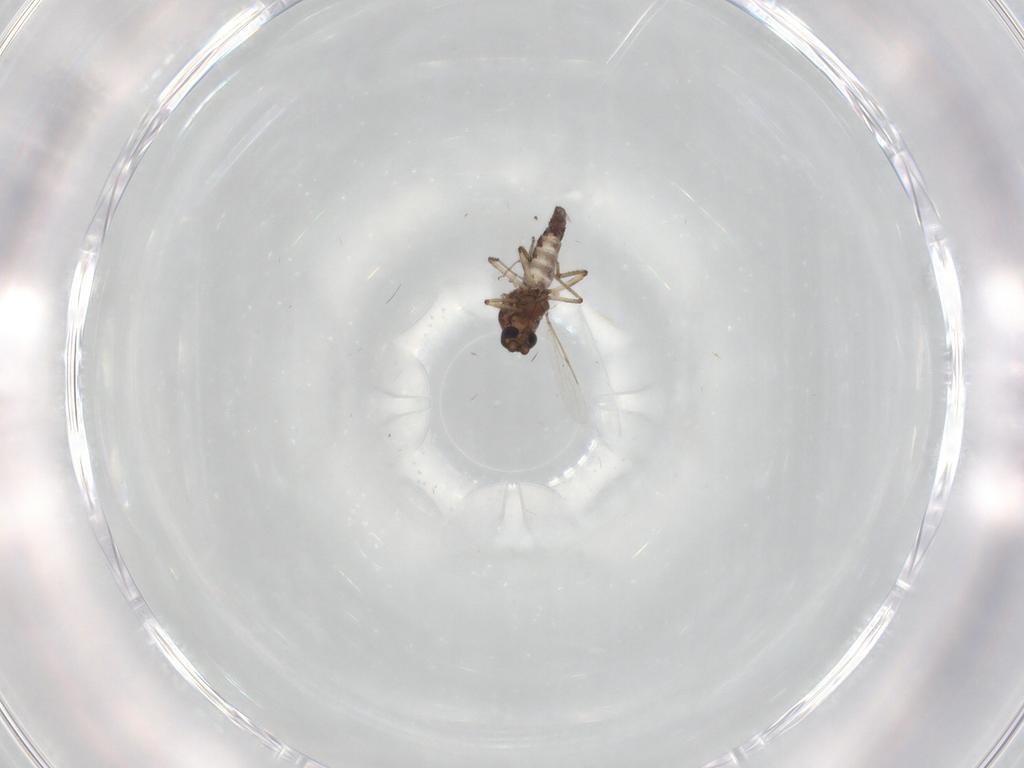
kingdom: Animalia
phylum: Arthropoda
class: Insecta
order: Diptera
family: Ceratopogonidae
